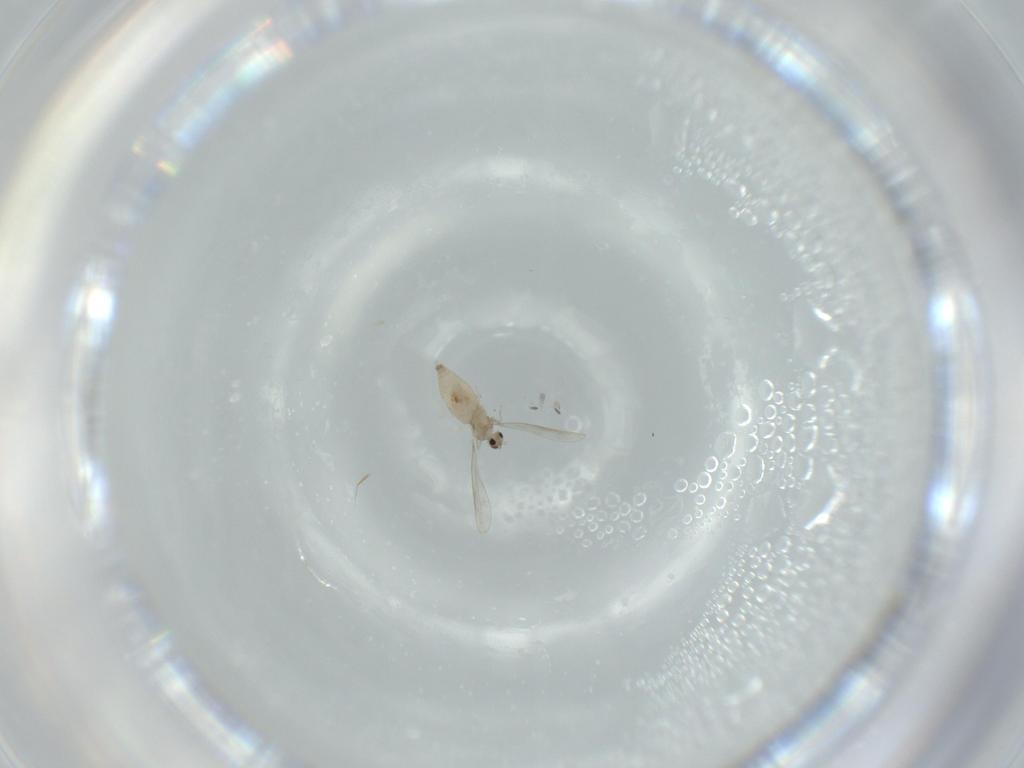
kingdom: Animalia
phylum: Arthropoda
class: Insecta
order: Diptera
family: Cecidomyiidae
